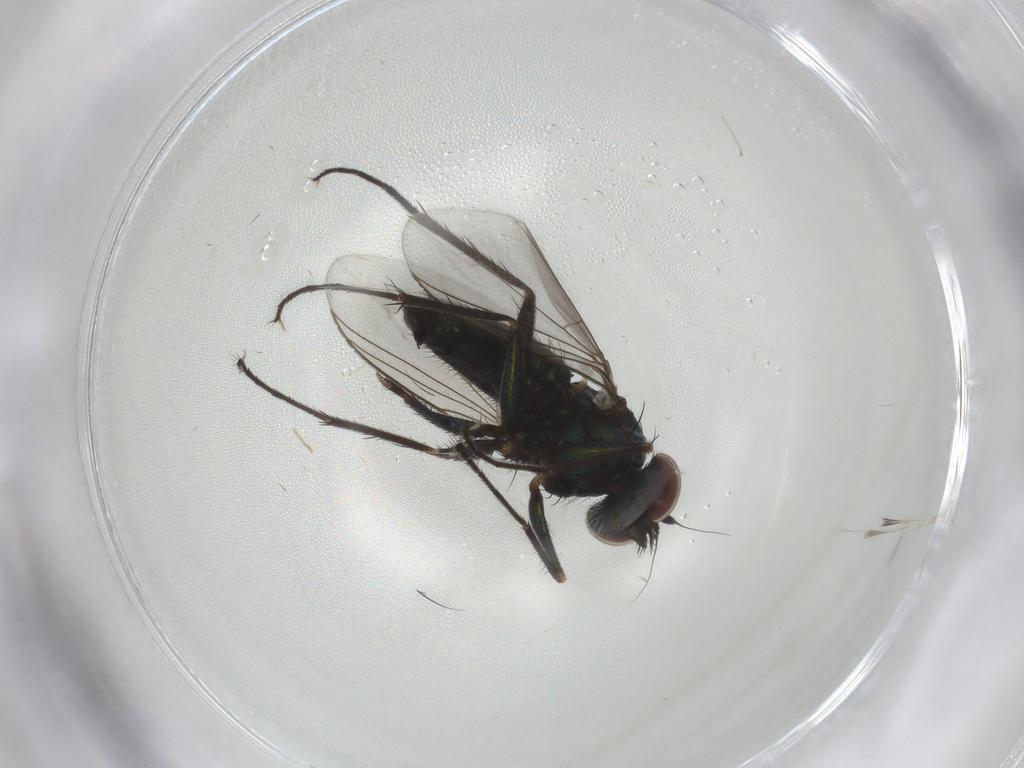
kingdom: Animalia
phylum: Arthropoda
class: Insecta
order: Diptera
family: Dolichopodidae
